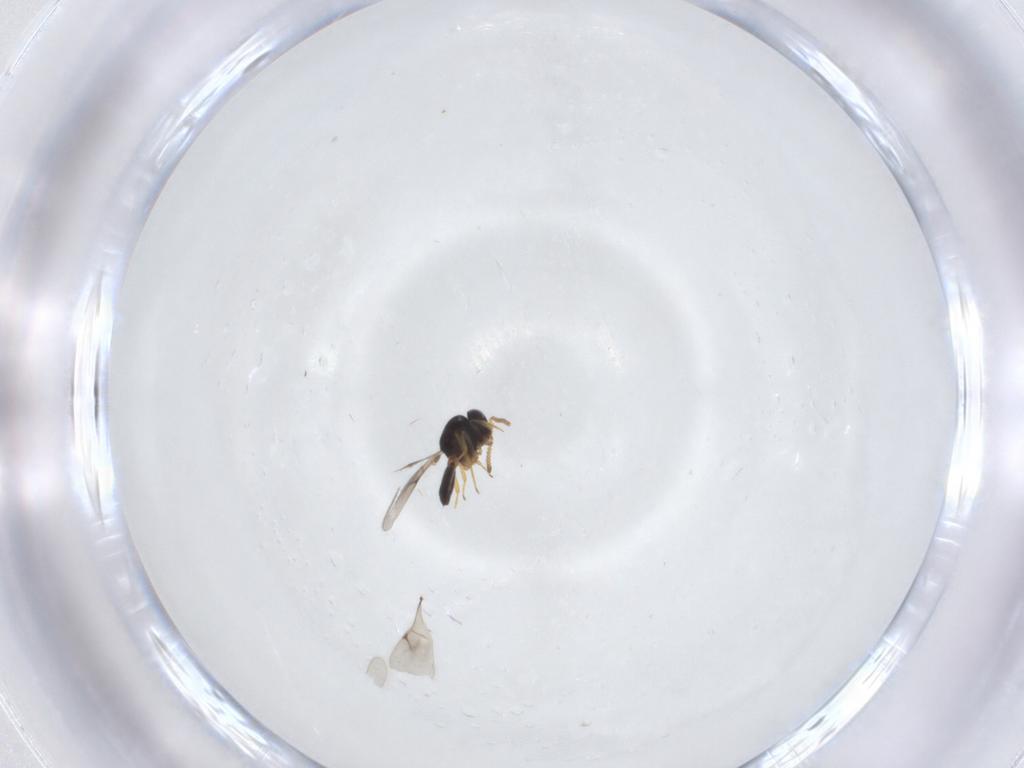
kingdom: Animalia
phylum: Arthropoda
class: Insecta
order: Hymenoptera
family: Scelionidae
